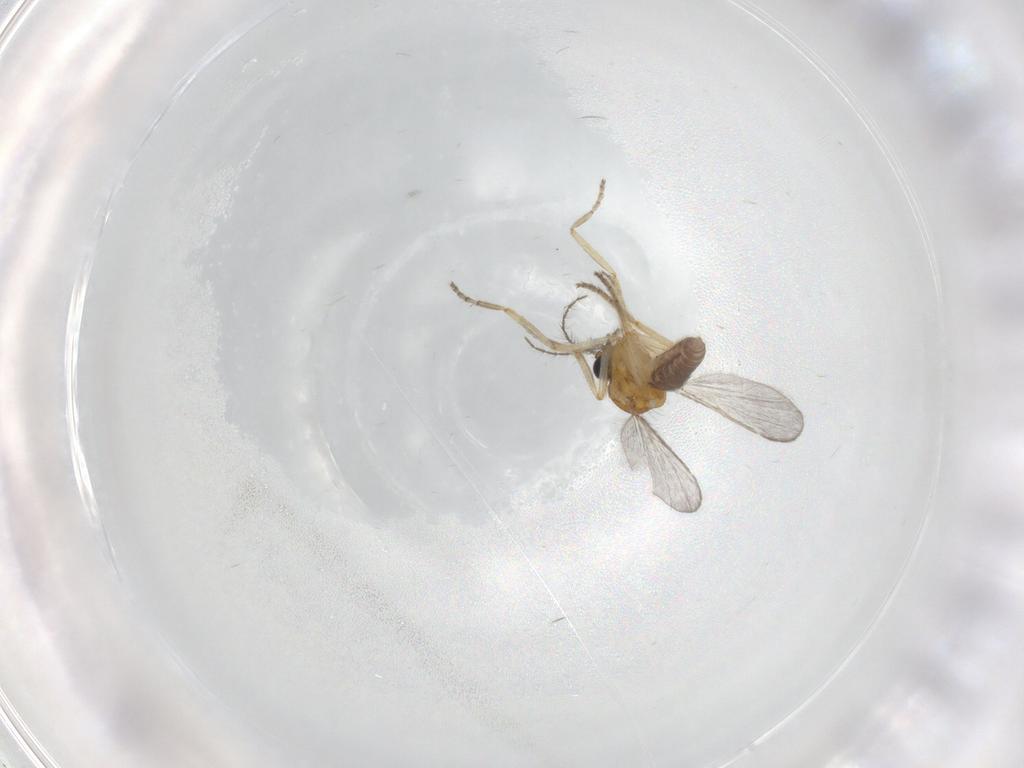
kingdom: Animalia
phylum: Arthropoda
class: Insecta
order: Diptera
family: Ceratopogonidae
